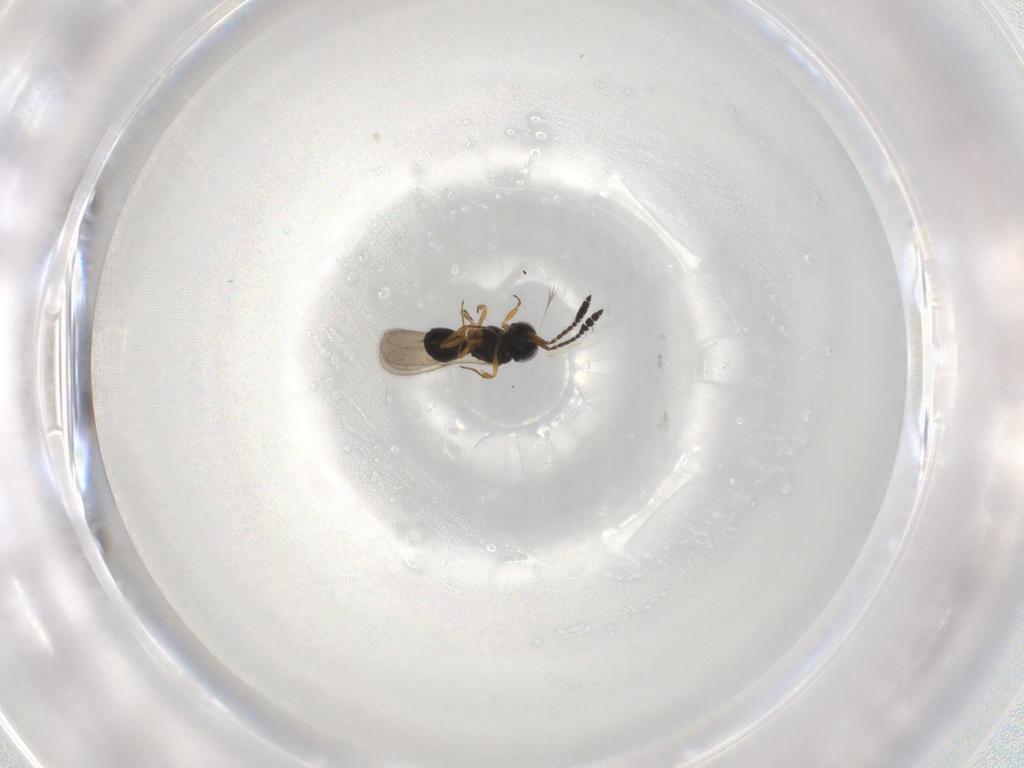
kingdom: Animalia
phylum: Arthropoda
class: Insecta
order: Hymenoptera
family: Scelionidae
